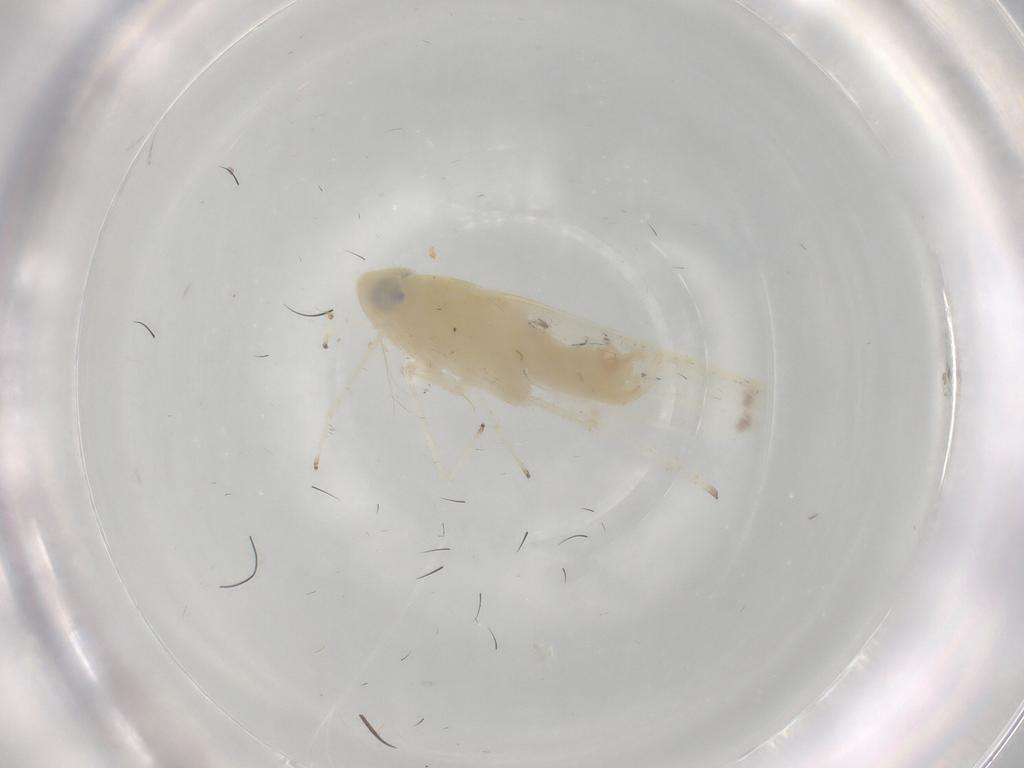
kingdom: Animalia
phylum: Arthropoda
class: Insecta
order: Hemiptera
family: Cicadellidae
